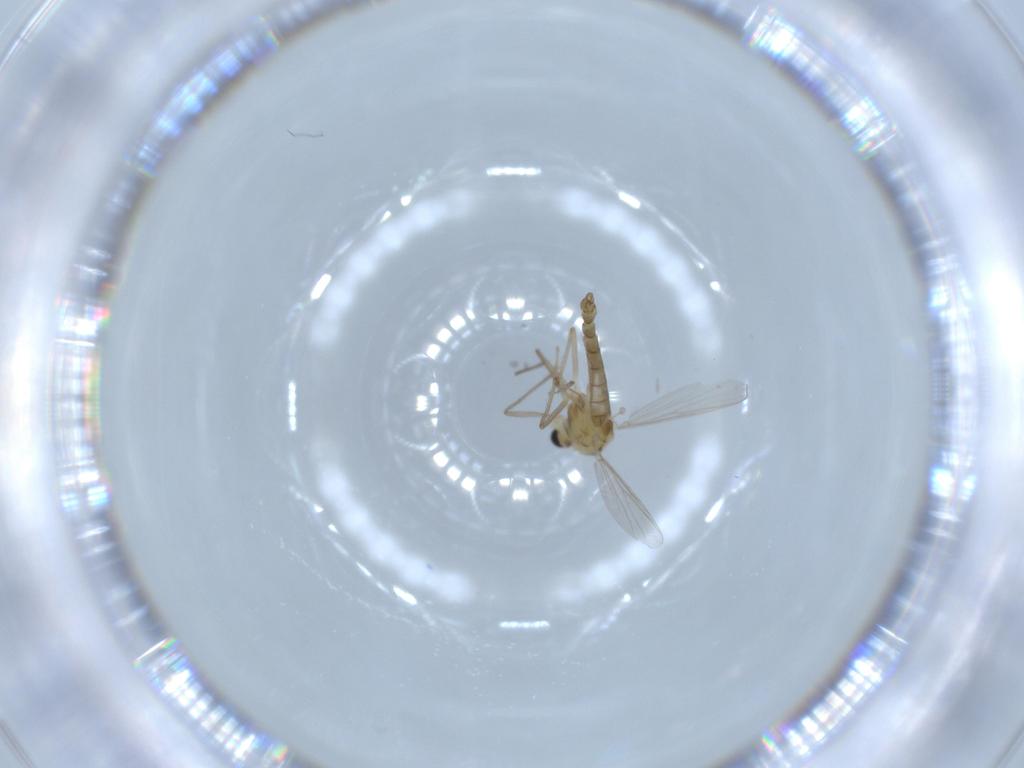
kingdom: Animalia
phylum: Arthropoda
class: Insecta
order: Diptera
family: Chironomidae
